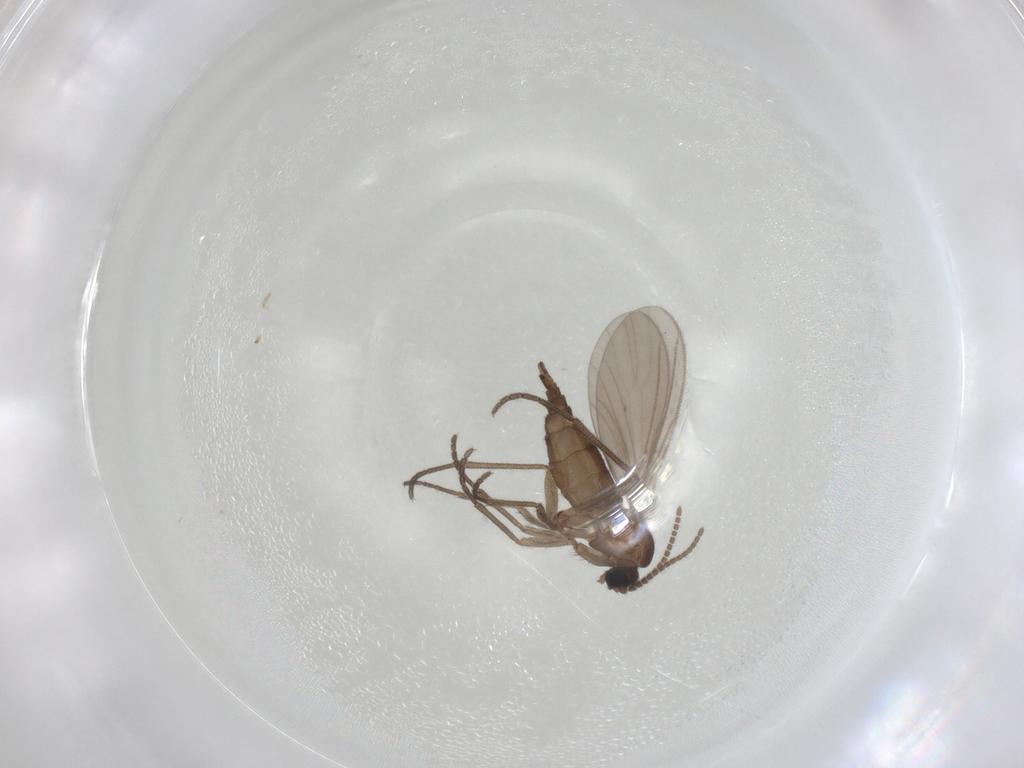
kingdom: Animalia
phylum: Arthropoda
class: Insecta
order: Diptera
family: Sciaridae
